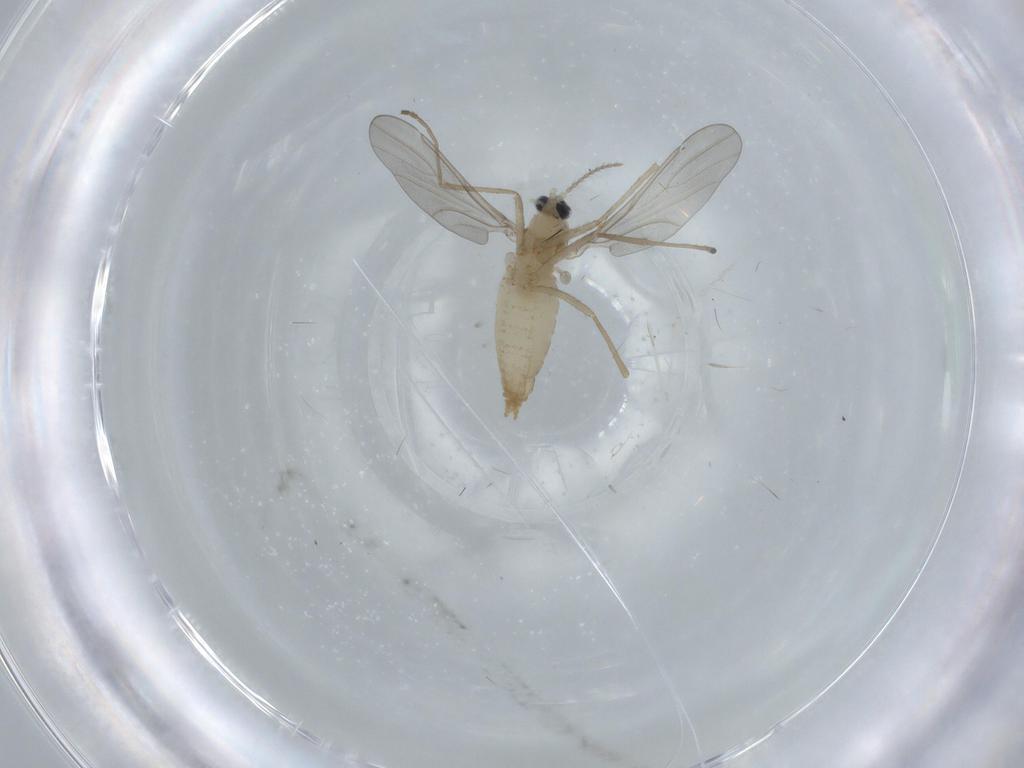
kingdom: Animalia
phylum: Arthropoda
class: Insecta
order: Diptera
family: Cecidomyiidae
